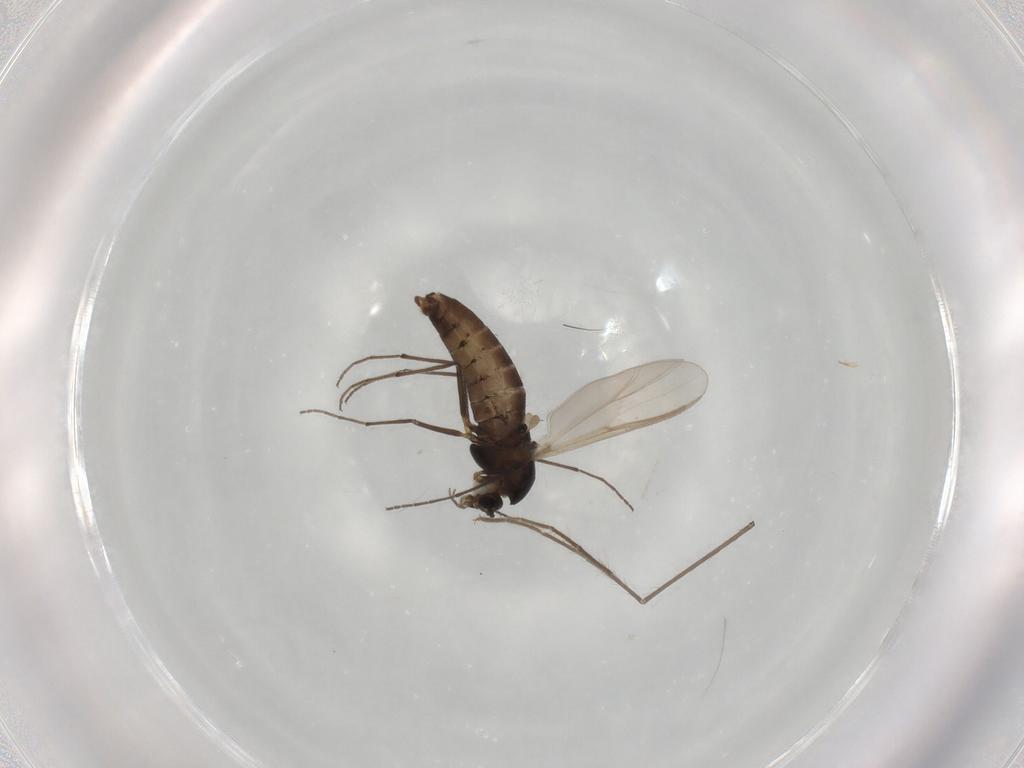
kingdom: Animalia
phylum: Arthropoda
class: Insecta
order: Diptera
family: Chironomidae
